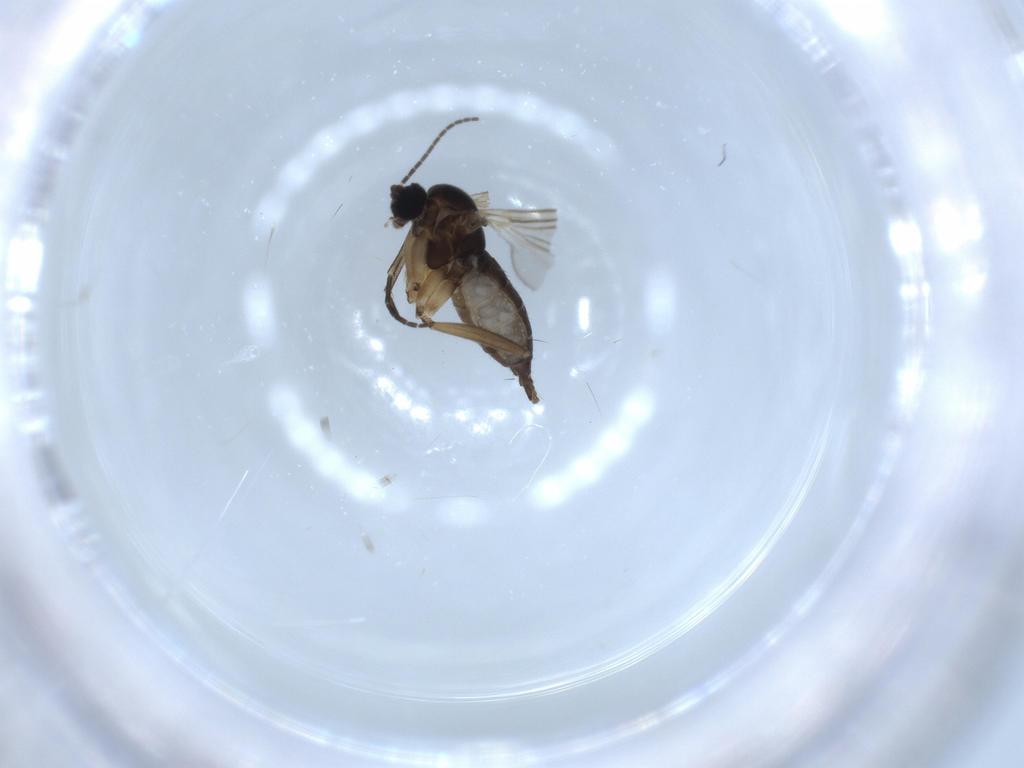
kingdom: Animalia
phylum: Arthropoda
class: Insecta
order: Diptera
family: Sciaridae
